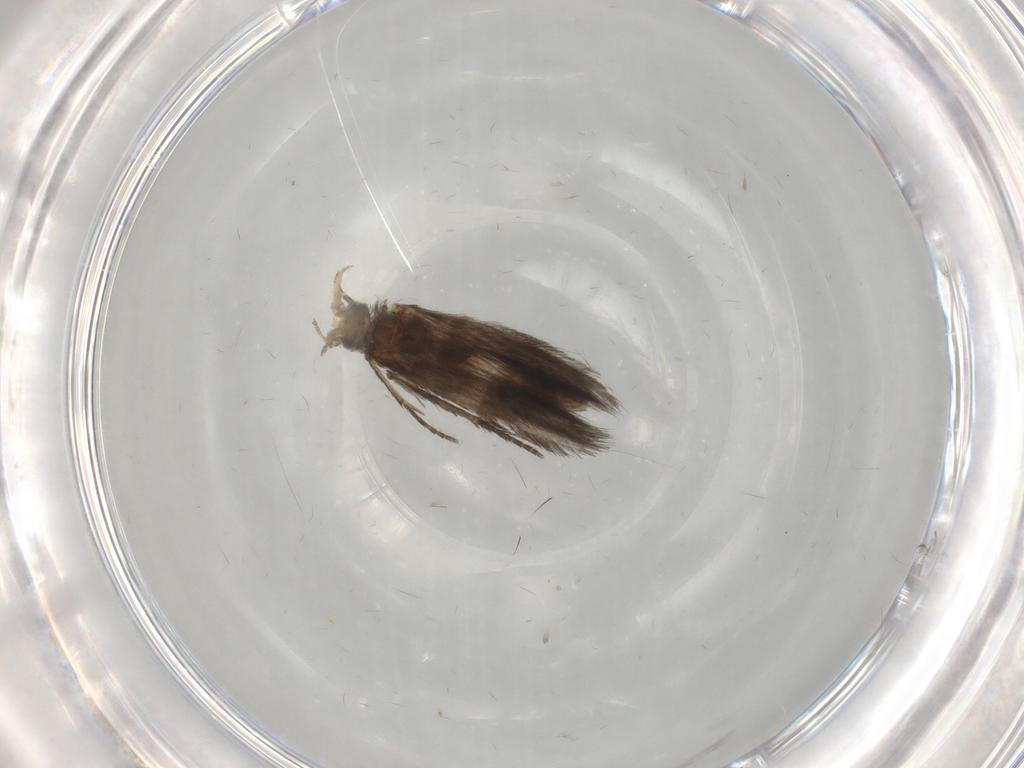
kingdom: Animalia
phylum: Arthropoda
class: Insecta
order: Trichoptera
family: Hydroptilidae
